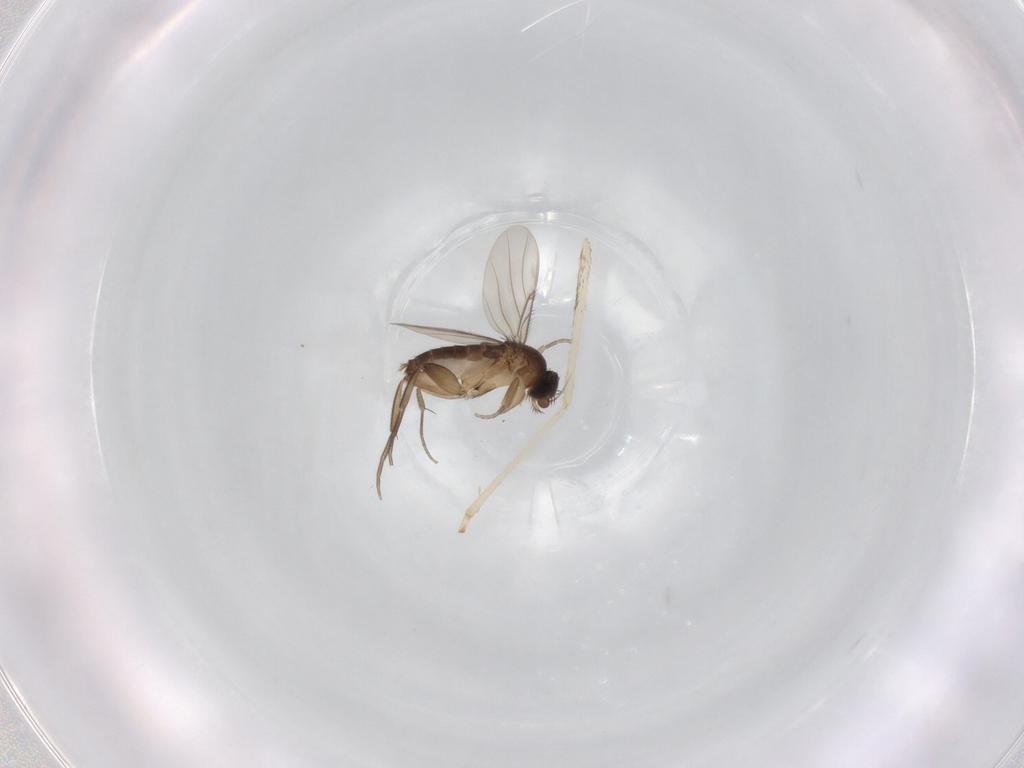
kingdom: Animalia
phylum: Arthropoda
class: Insecta
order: Diptera
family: Cecidomyiidae
